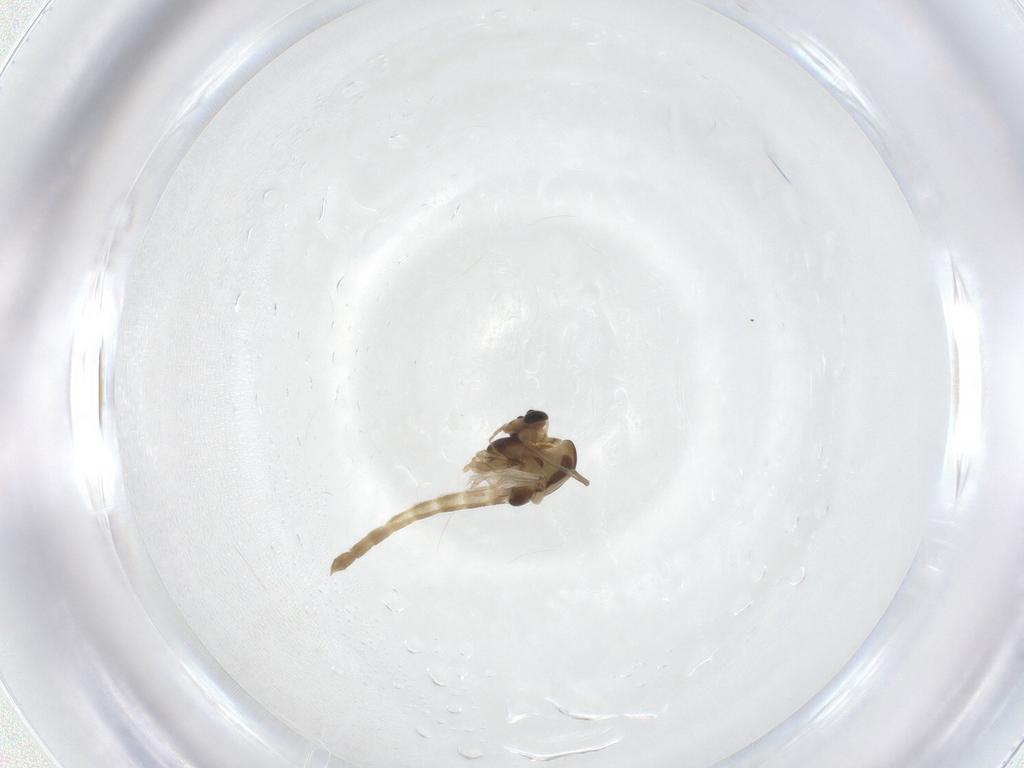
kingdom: Animalia
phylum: Arthropoda
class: Insecta
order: Diptera
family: Chironomidae
